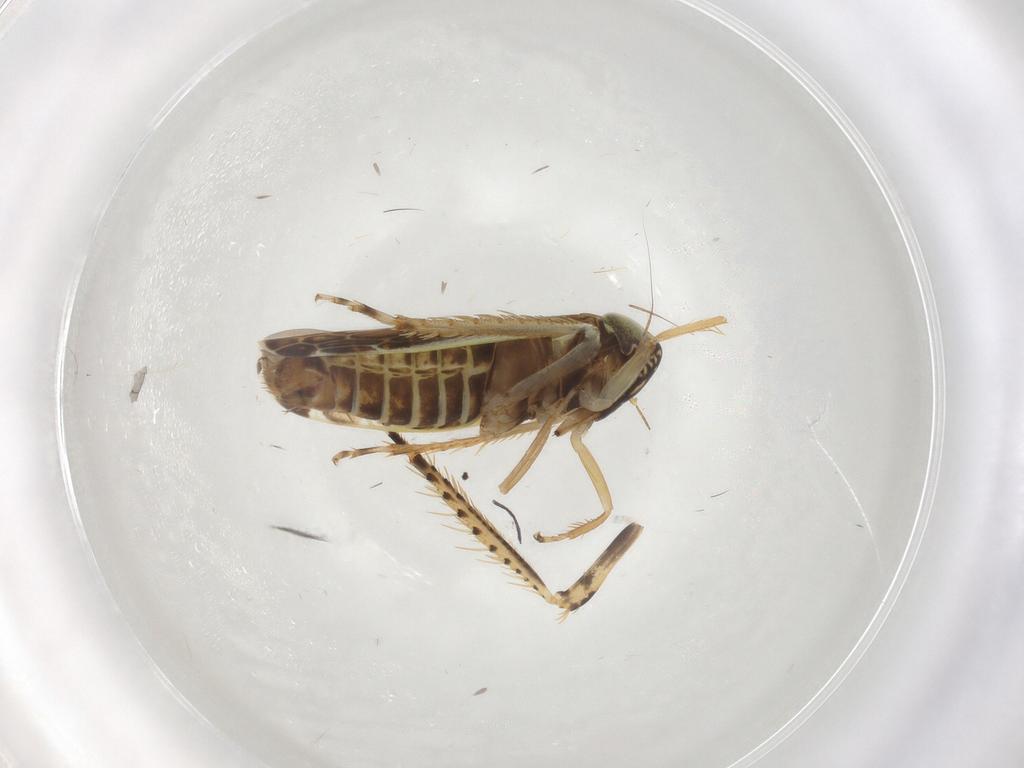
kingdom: Animalia
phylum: Arthropoda
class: Insecta
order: Hemiptera
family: Cicadellidae
